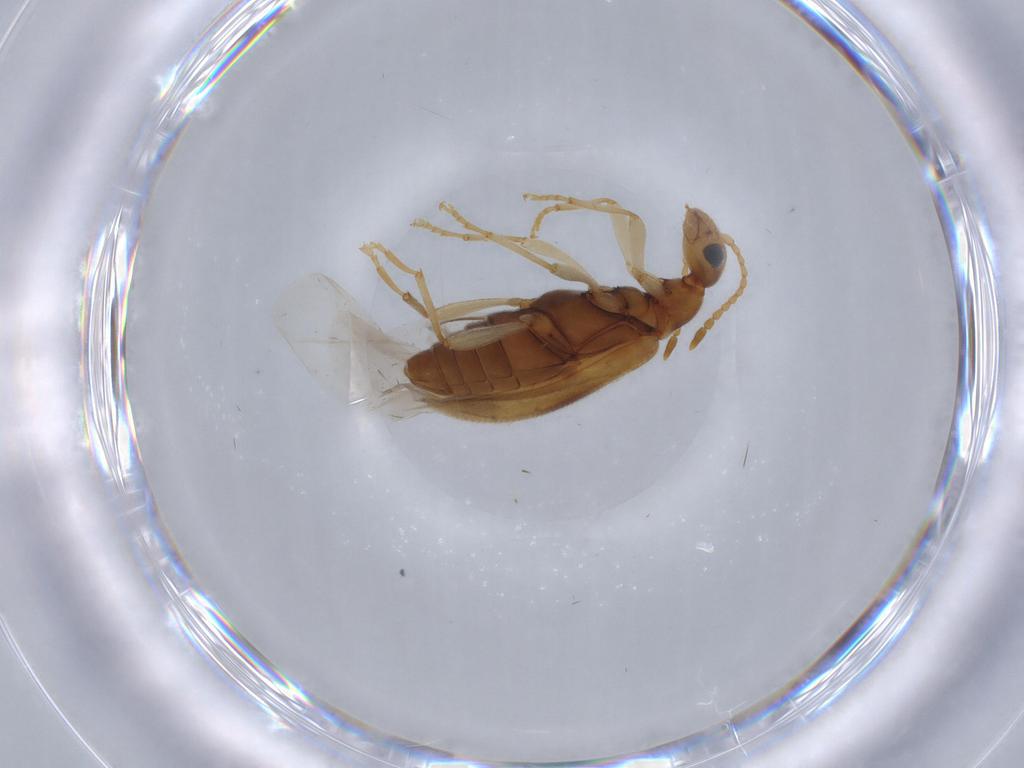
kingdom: Animalia
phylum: Arthropoda
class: Insecta
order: Coleoptera
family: Anthicidae
